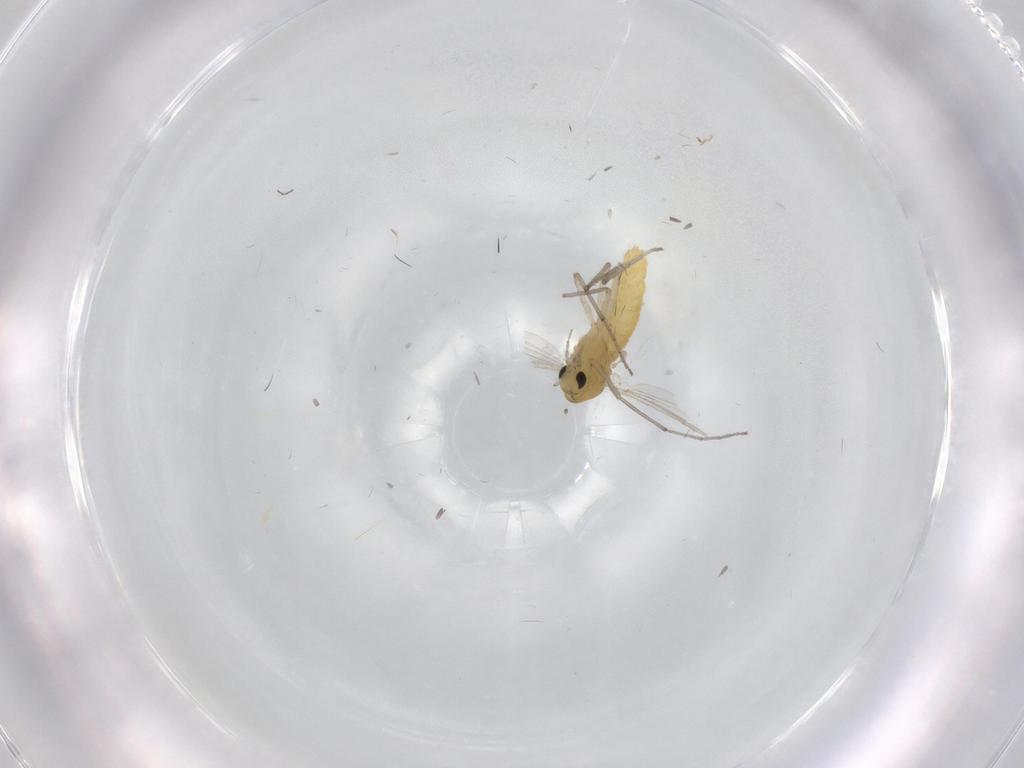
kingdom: Animalia
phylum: Arthropoda
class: Insecta
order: Diptera
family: Chironomidae
